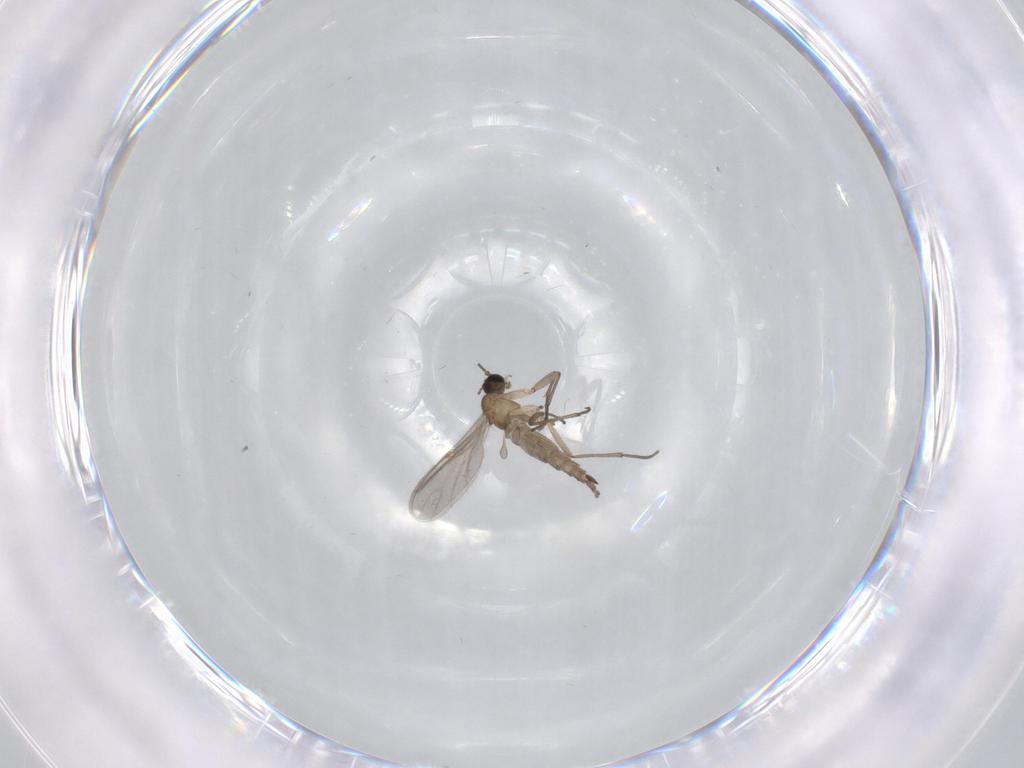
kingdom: Animalia
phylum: Arthropoda
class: Insecta
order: Diptera
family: Sciaridae
